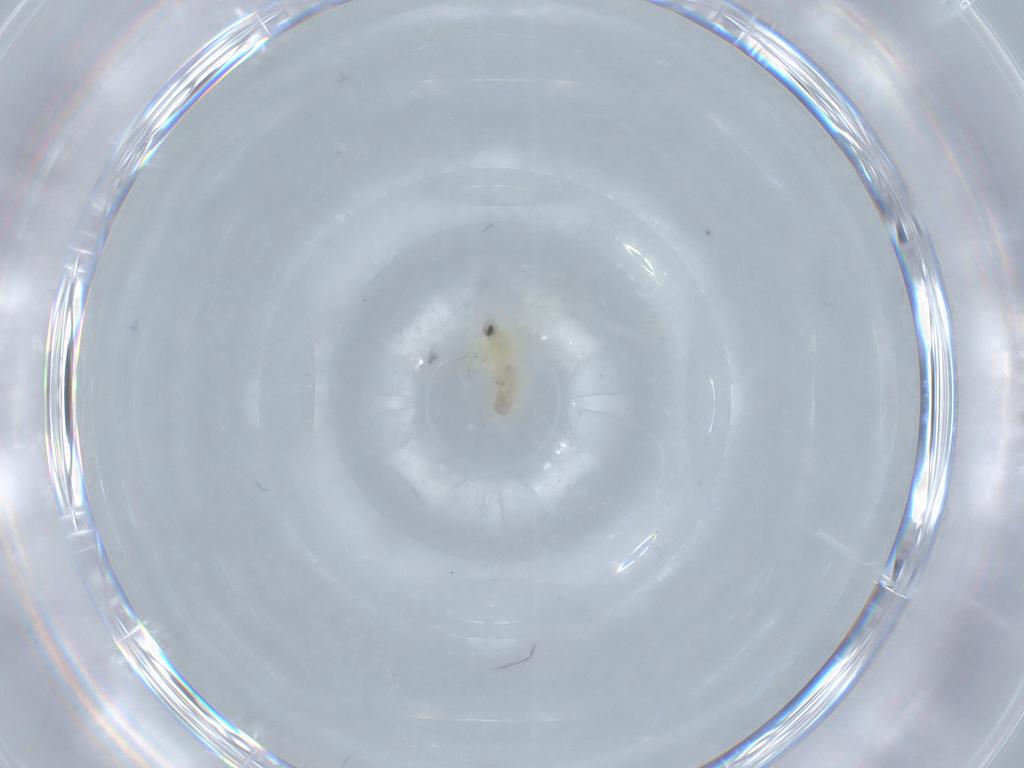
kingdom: Animalia
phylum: Arthropoda
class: Insecta
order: Hemiptera
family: Aleyrodidae
